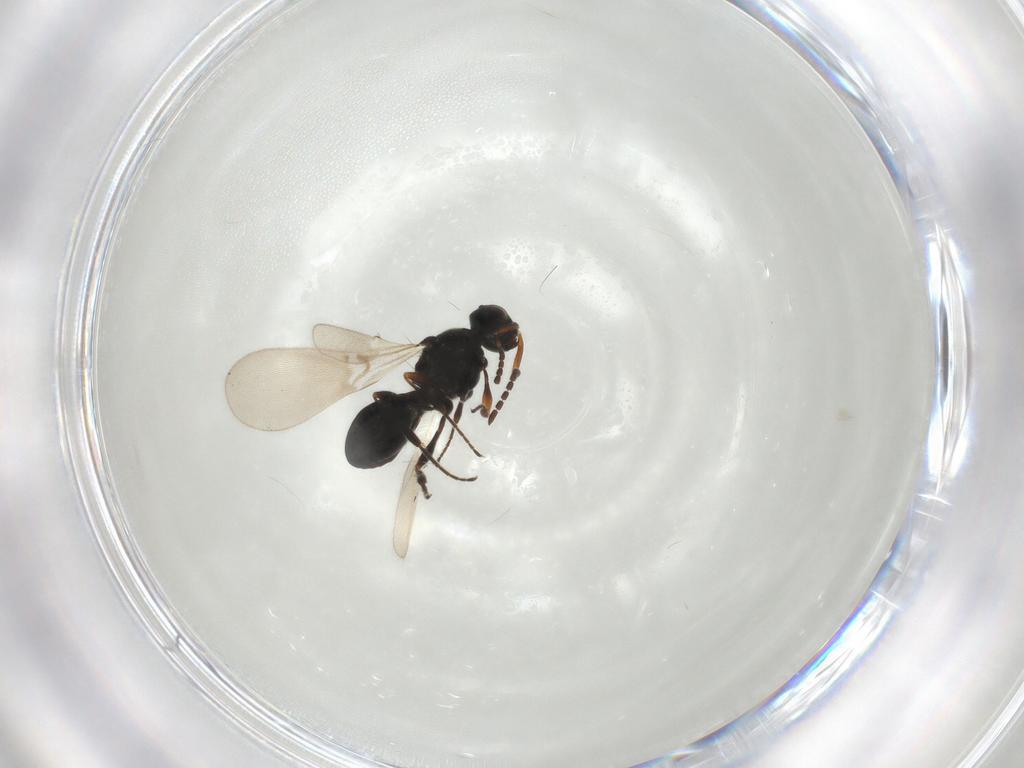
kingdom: Animalia
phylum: Arthropoda
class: Insecta
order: Hymenoptera
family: Platygastridae
